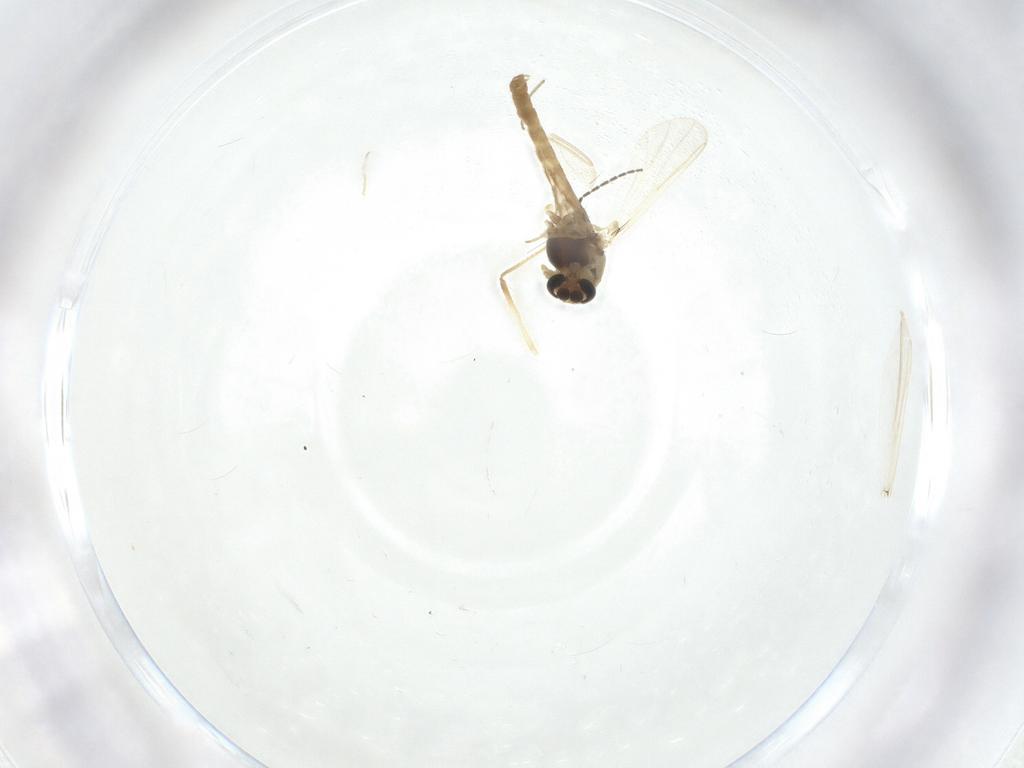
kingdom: Animalia
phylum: Arthropoda
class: Insecta
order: Diptera
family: Chironomidae
